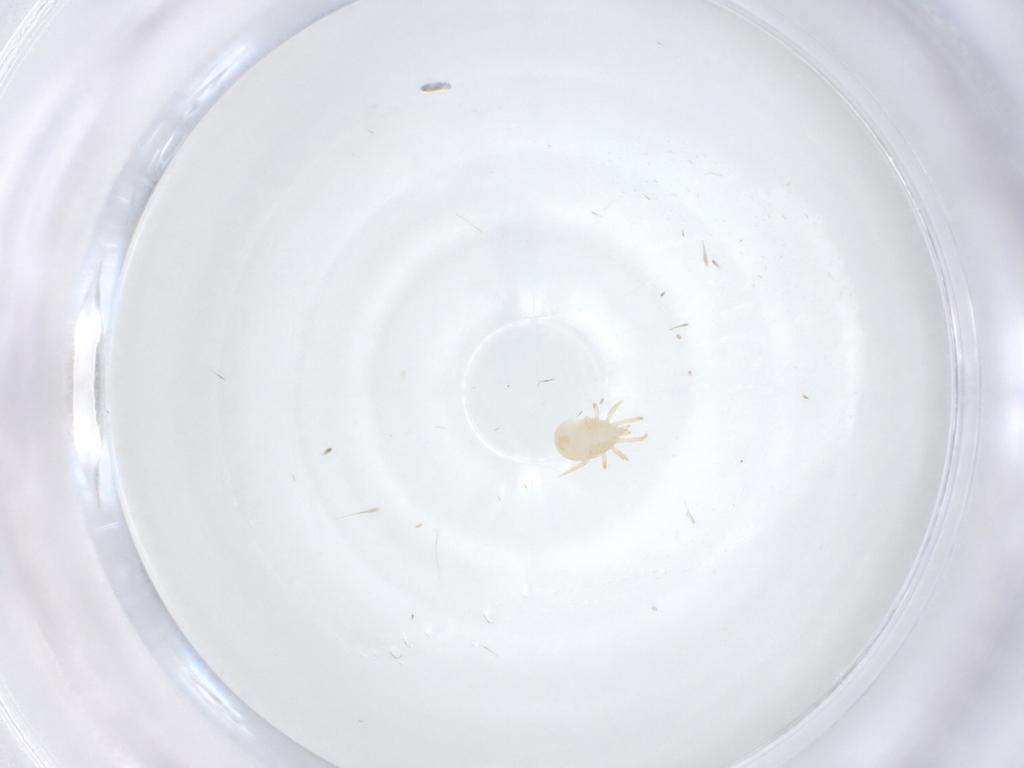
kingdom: Animalia
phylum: Arthropoda
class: Arachnida
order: Mesostigmata
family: Ameroseiidae
